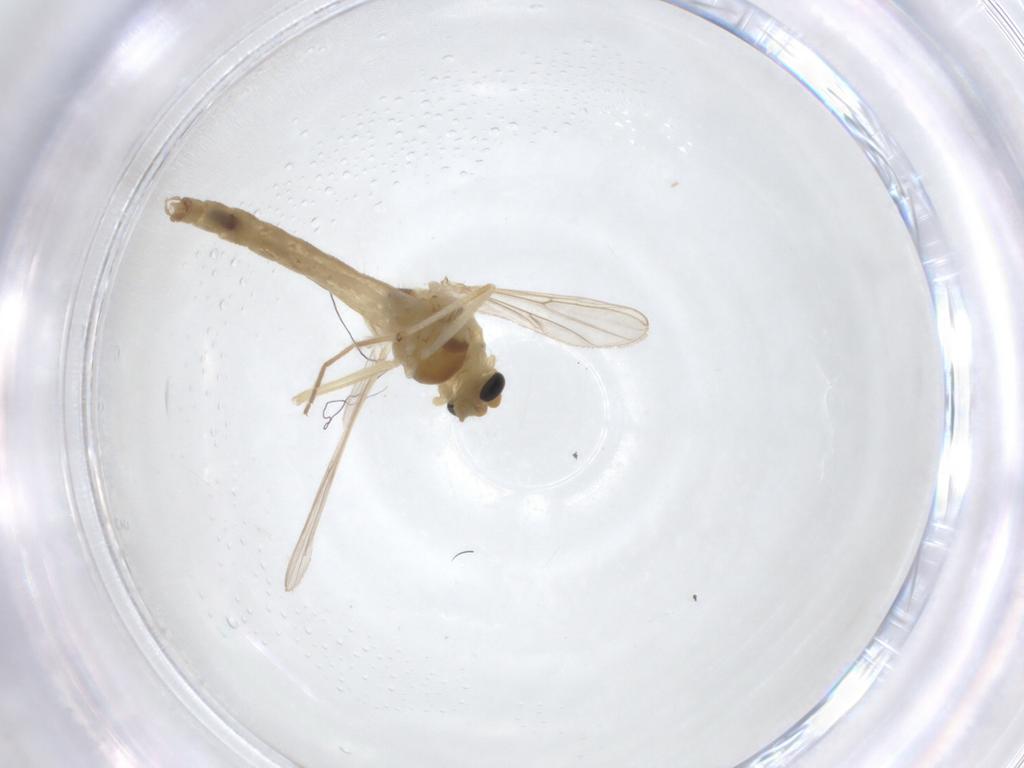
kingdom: Animalia
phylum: Arthropoda
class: Insecta
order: Diptera
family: Chironomidae
